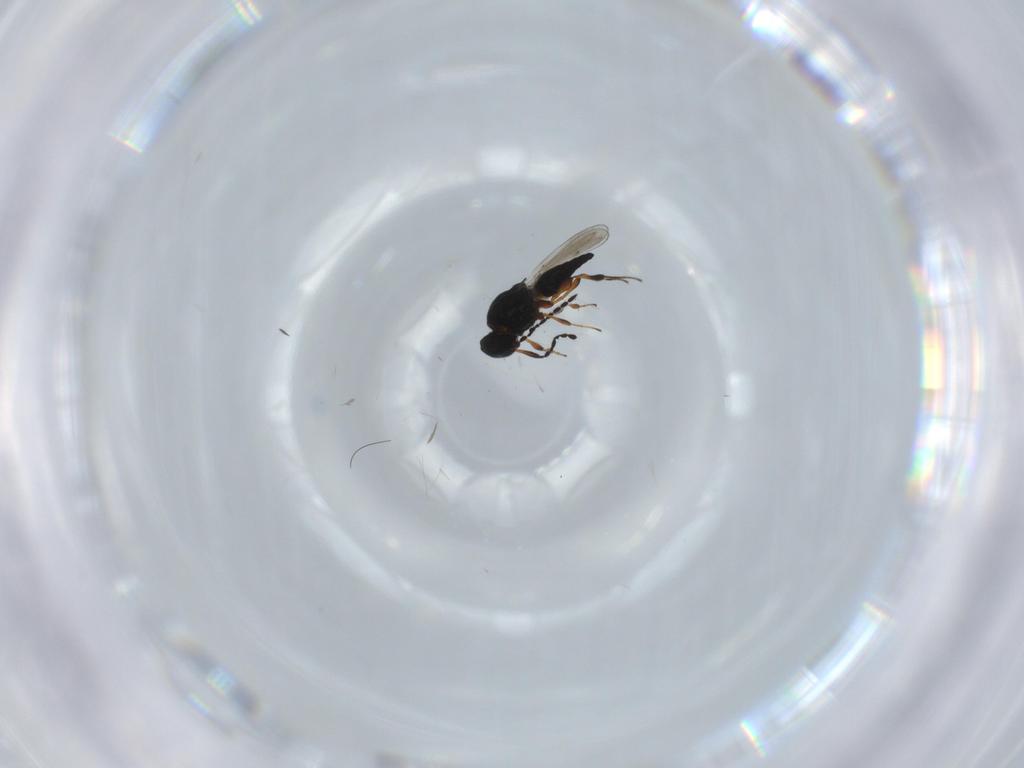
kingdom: Animalia
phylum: Arthropoda
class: Insecta
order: Hymenoptera
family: Platygastridae
